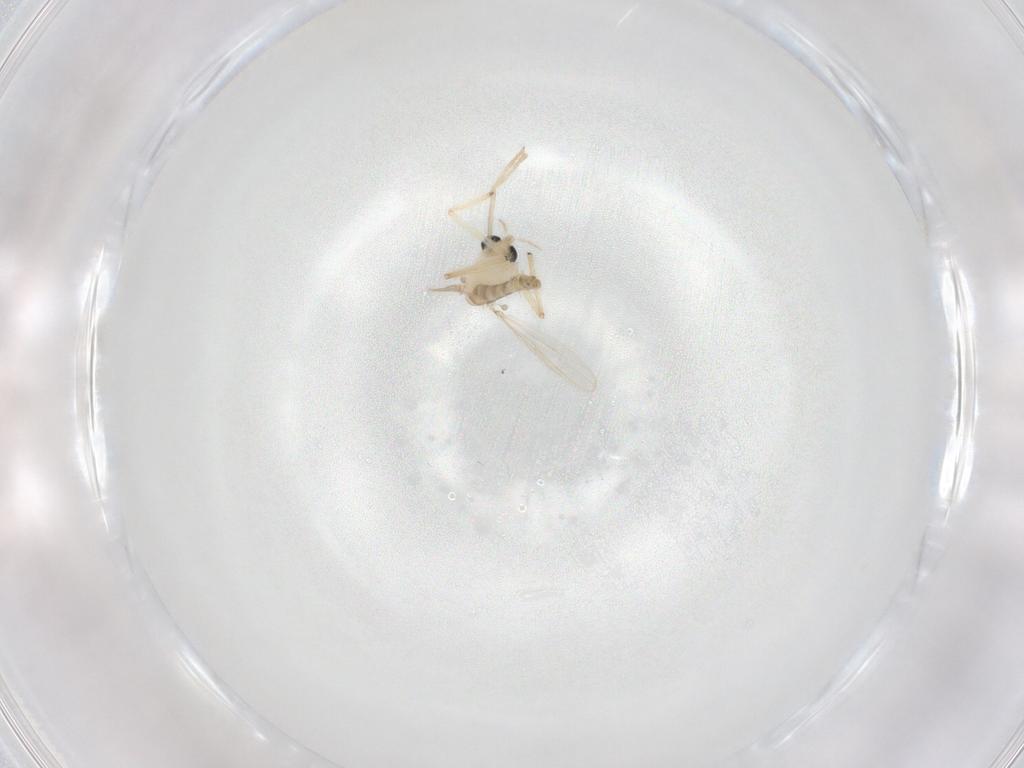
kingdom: Animalia
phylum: Arthropoda
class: Insecta
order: Diptera
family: Cecidomyiidae
